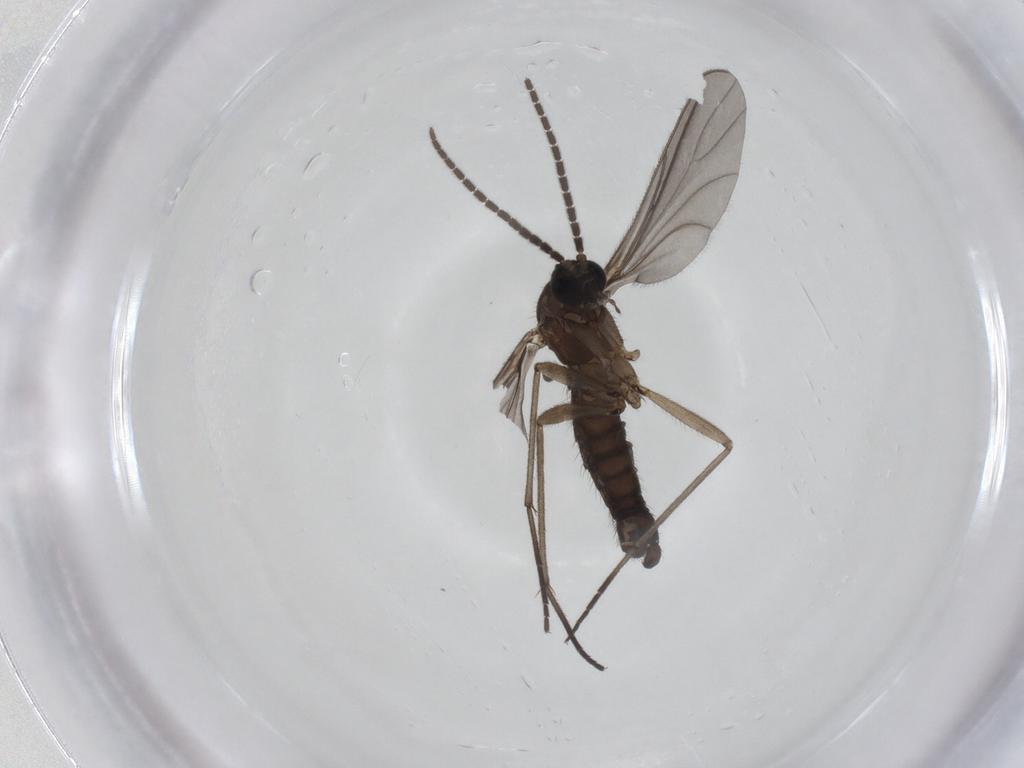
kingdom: Animalia
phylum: Arthropoda
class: Insecta
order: Diptera
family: Sciaridae
